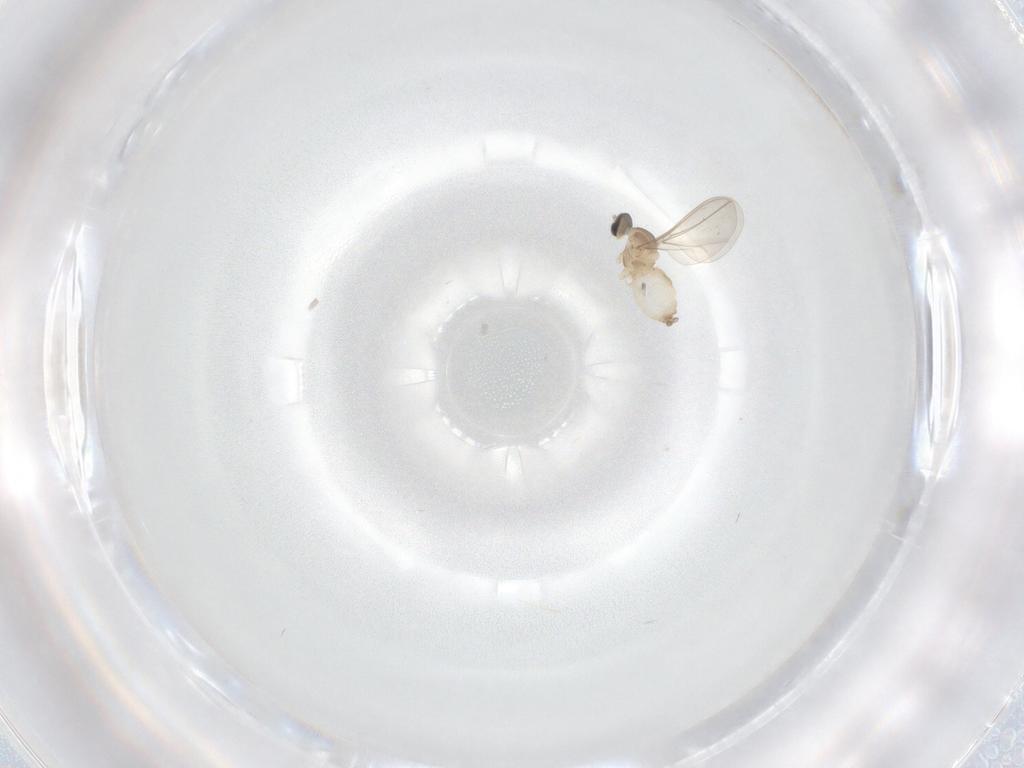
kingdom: Animalia
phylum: Arthropoda
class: Insecta
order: Diptera
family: Cecidomyiidae
